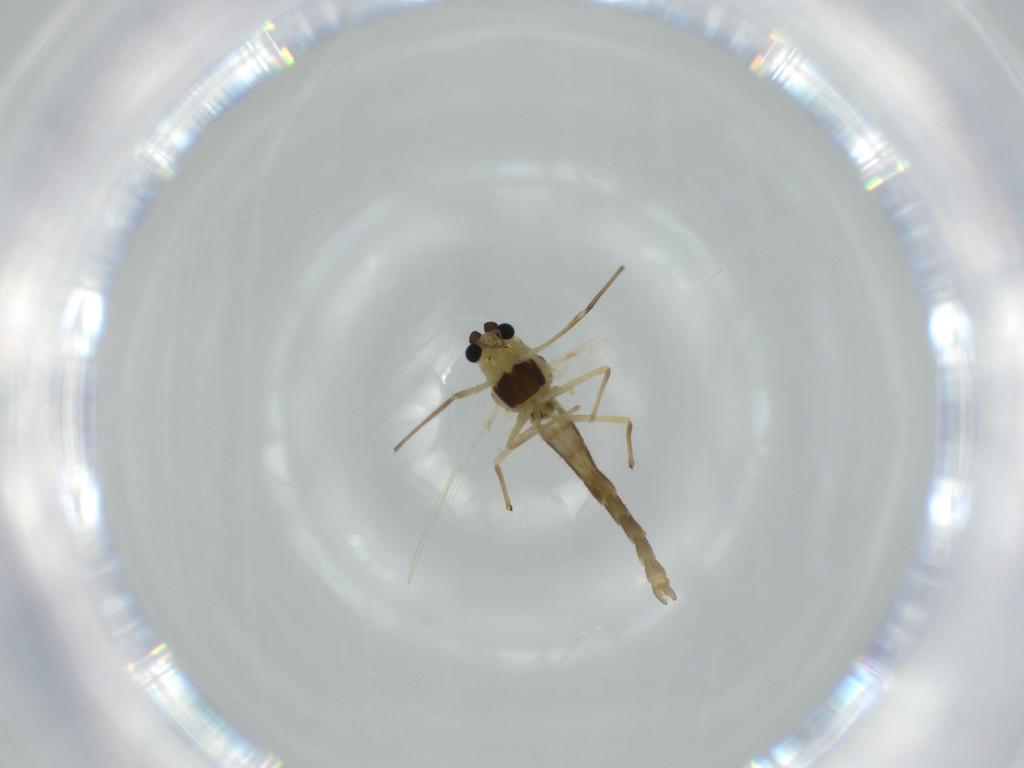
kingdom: Animalia
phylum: Arthropoda
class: Insecta
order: Diptera
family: Chironomidae
